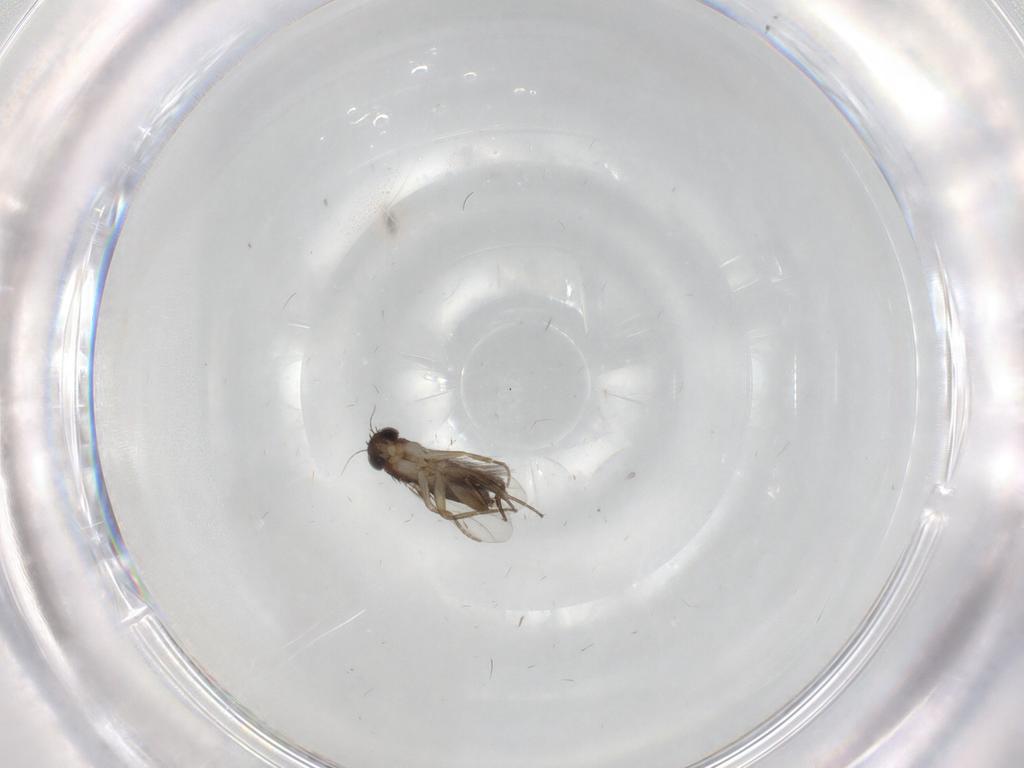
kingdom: Animalia
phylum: Arthropoda
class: Insecta
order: Diptera
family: Phoridae
